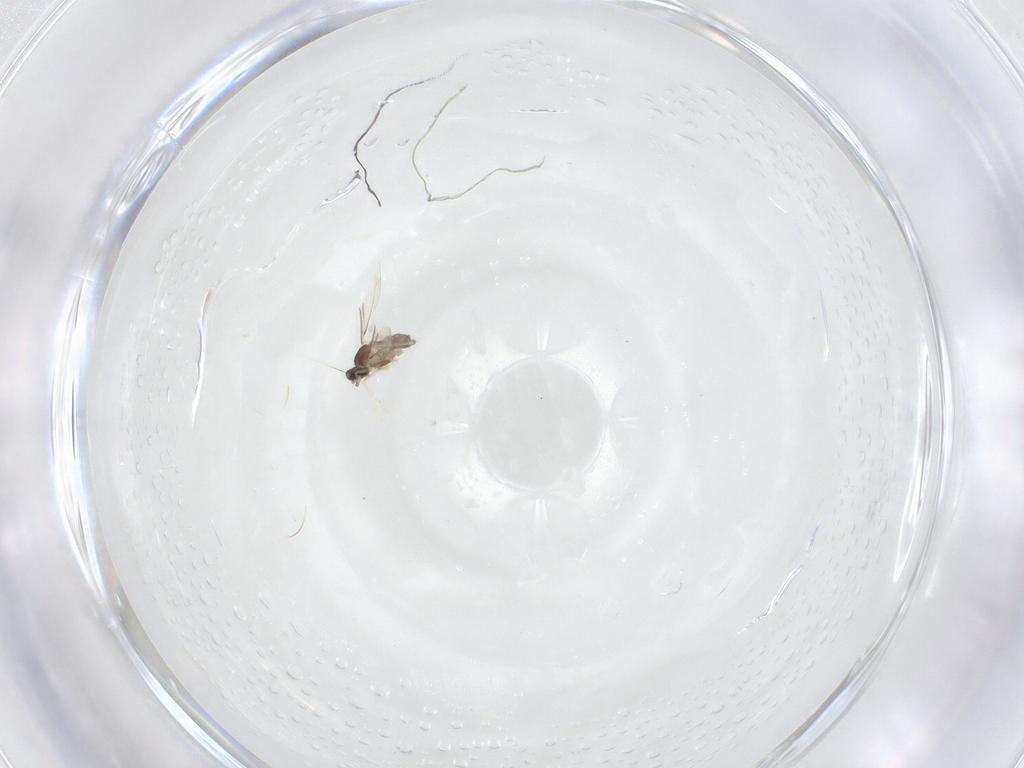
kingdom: Animalia
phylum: Arthropoda
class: Insecta
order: Diptera
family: Cecidomyiidae
